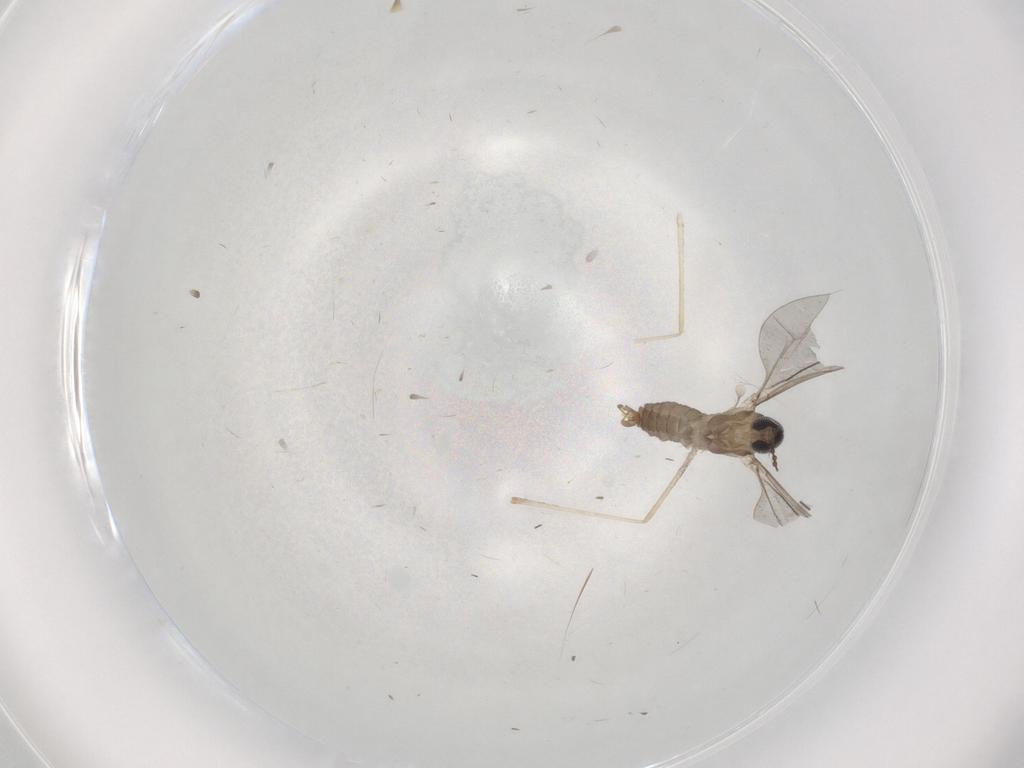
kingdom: Animalia
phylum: Arthropoda
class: Insecta
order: Diptera
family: Cecidomyiidae
